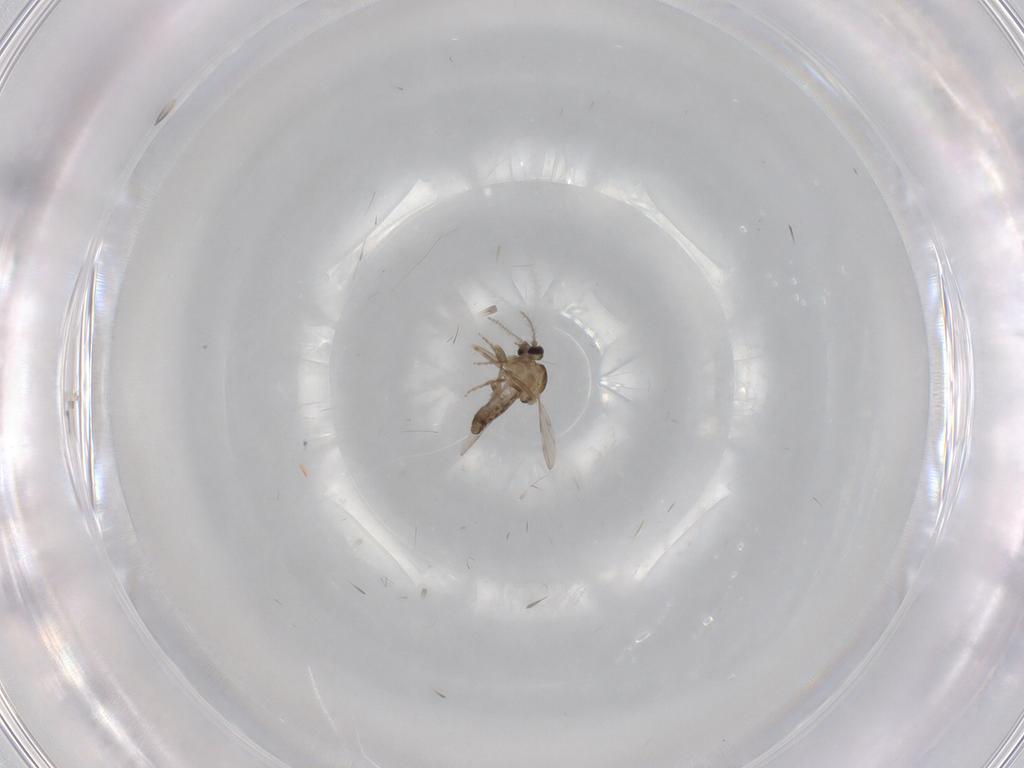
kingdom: Animalia
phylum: Arthropoda
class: Insecta
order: Diptera
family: Ceratopogonidae
